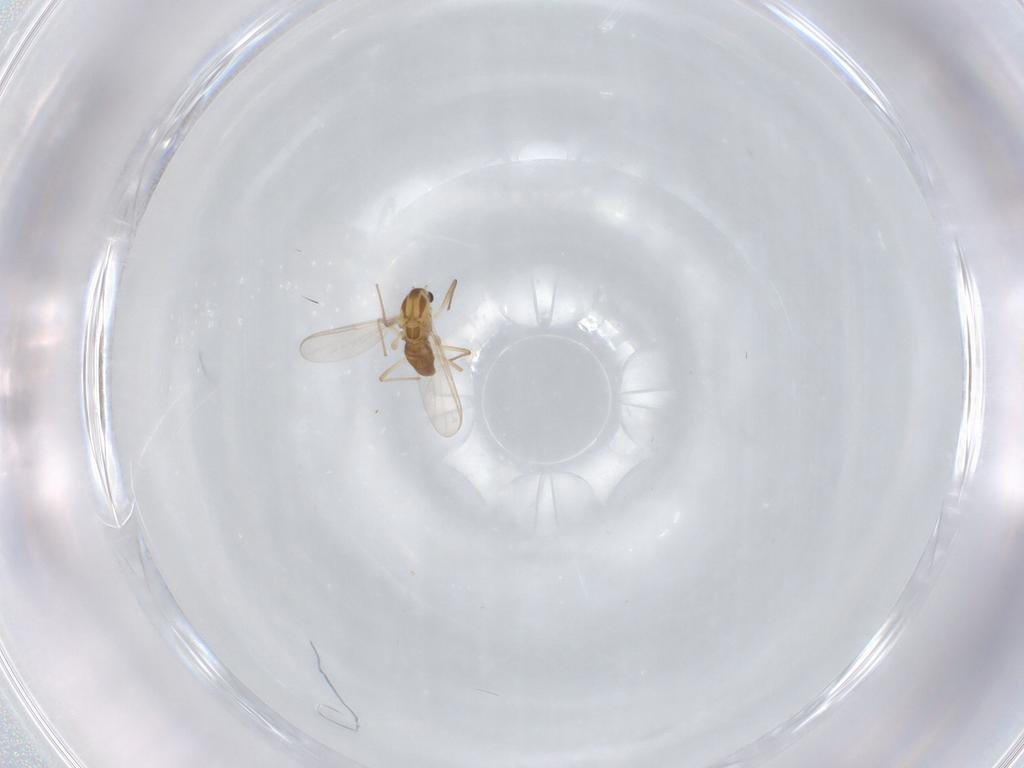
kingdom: Animalia
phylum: Arthropoda
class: Insecta
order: Diptera
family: Chironomidae
